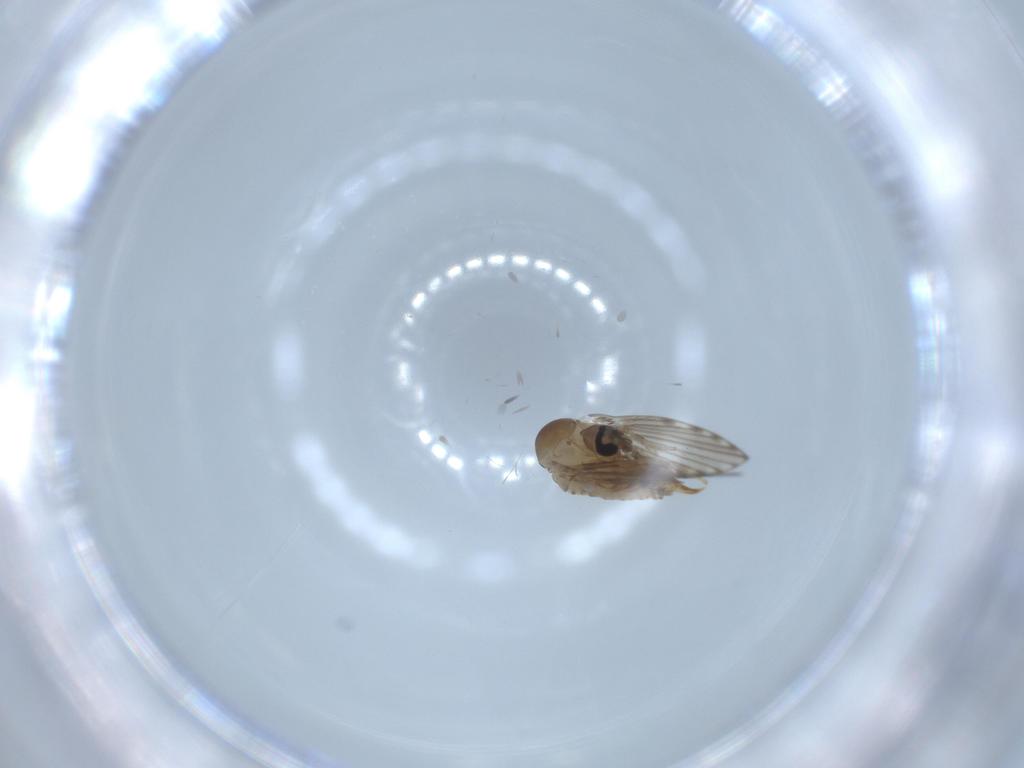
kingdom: Animalia
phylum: Arthropoda
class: Insecta
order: Diptera
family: Psychodidae
